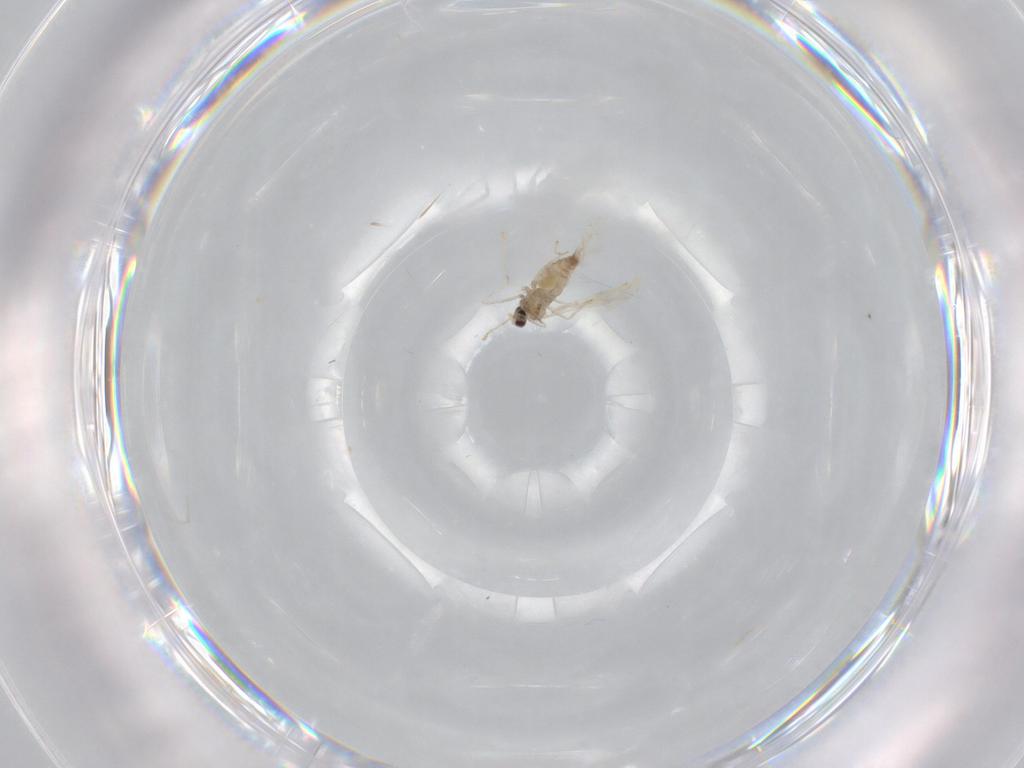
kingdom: Animalia
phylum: Arthropoda
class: Insecta
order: Diptera
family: Cecidomyiidae
